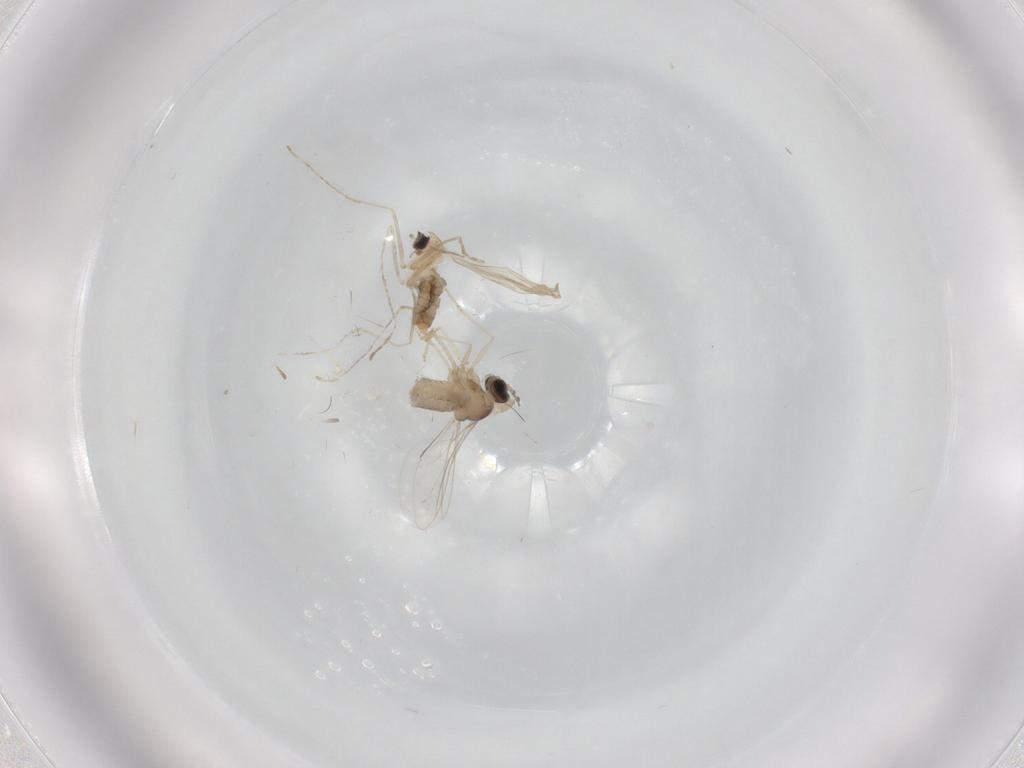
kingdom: Animalia
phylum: Arthropoda
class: Insecta
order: Diptera
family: Cecidomyiidae
